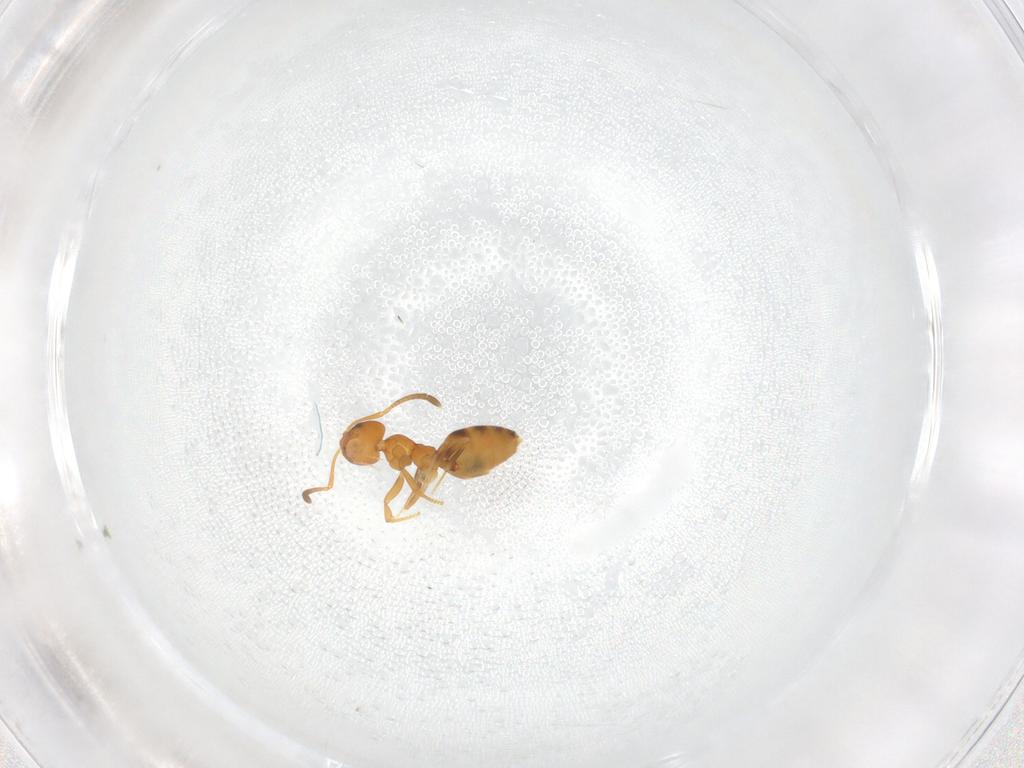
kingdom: Animalia
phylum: Arthropoda
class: Insecta
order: Hymenoptera
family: Formicidae
